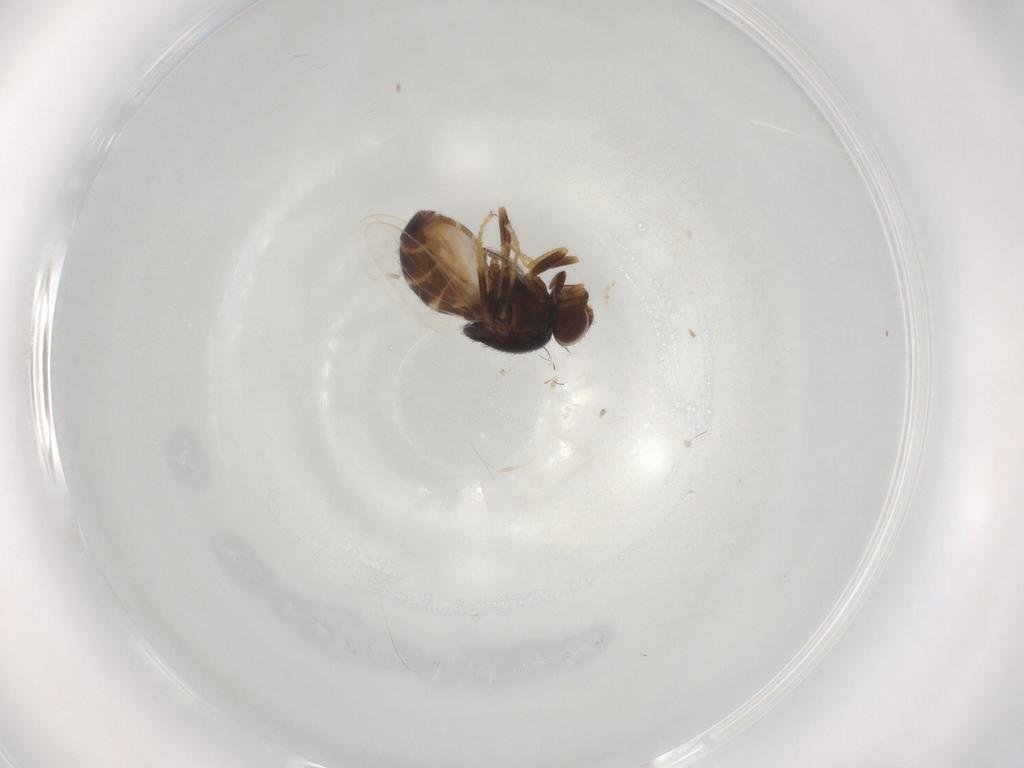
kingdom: Animalia
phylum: Arthropoda
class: Insecta
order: Diptera
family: Chloropidae
